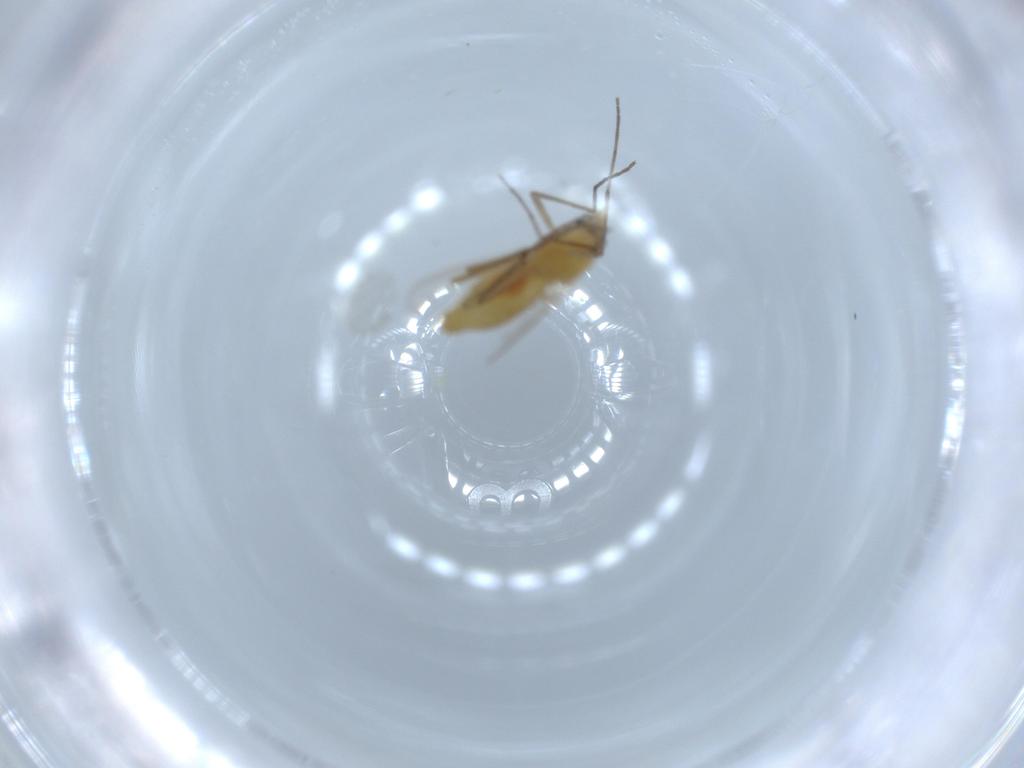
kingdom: Animalia
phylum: Arthropoda
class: Insecta
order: Diptera
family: Chironomidae
